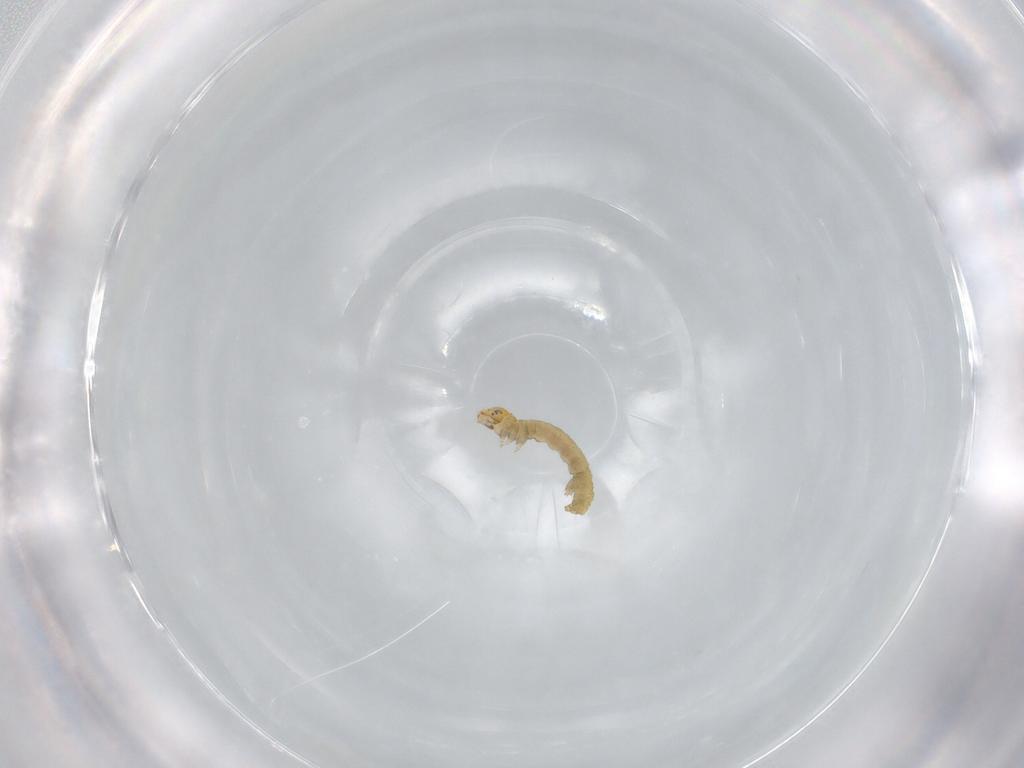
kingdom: Animalia
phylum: Arthropoda
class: Insecta
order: Lepidoptera
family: Geometridae
